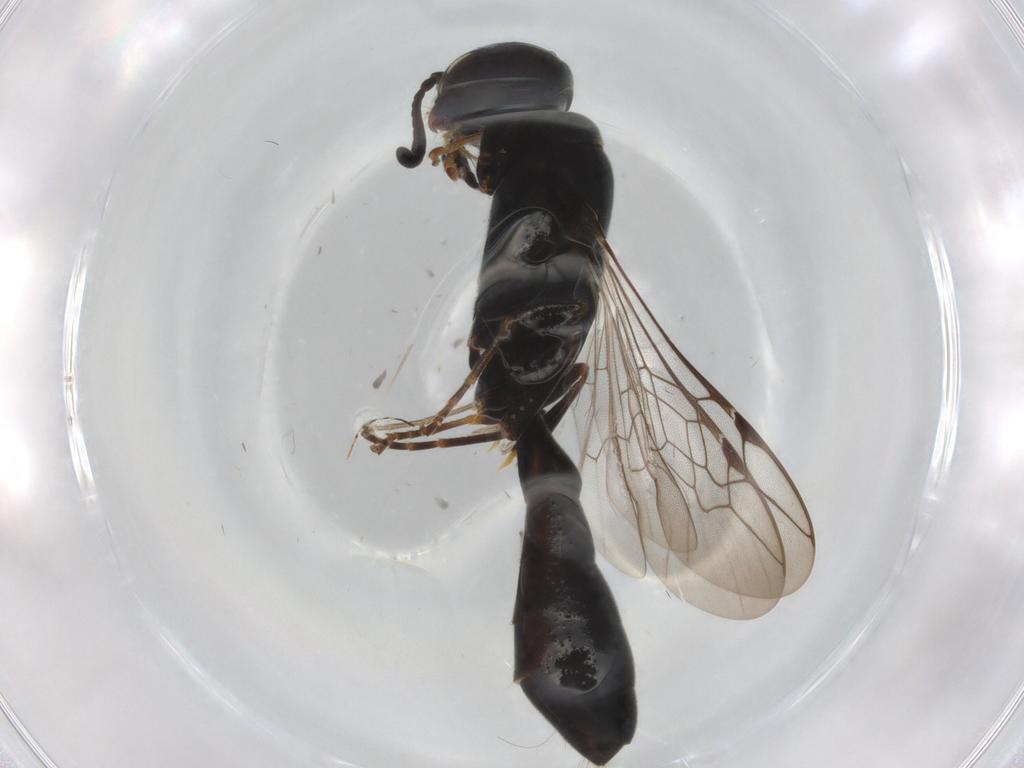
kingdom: Animalia
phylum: Arthropoda
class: Insecta
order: Hymenoptera
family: Crabronidae
